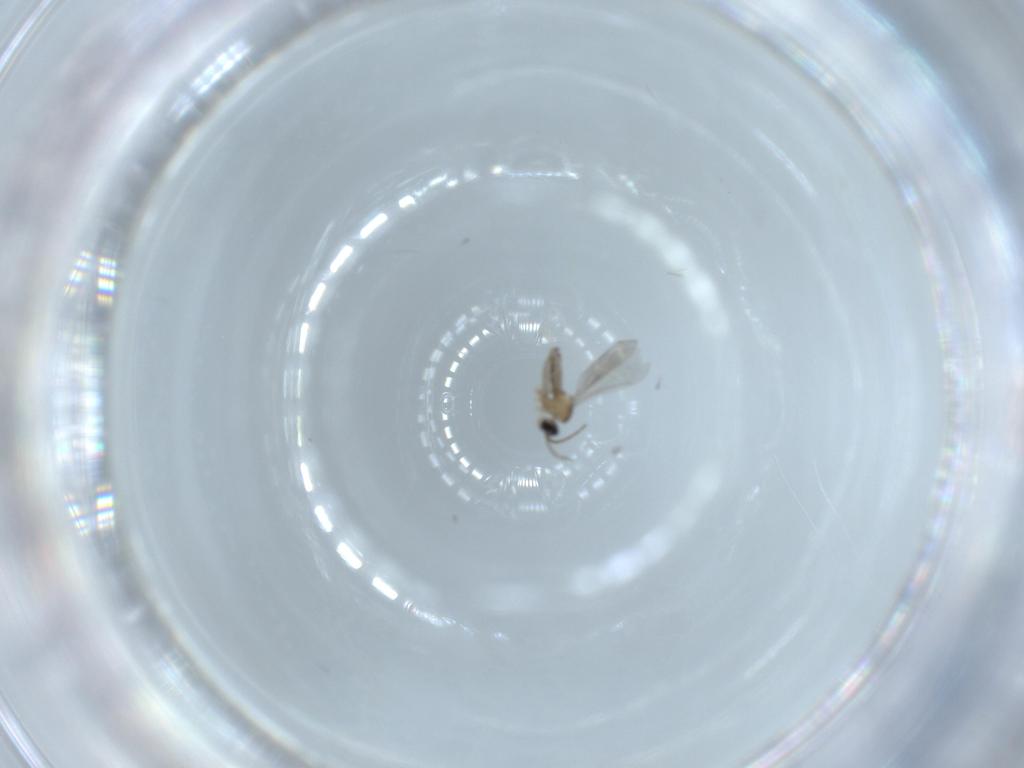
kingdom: Animalia
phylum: Arthropoda
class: Insecta
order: Diptera
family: Cecidomyiidae
